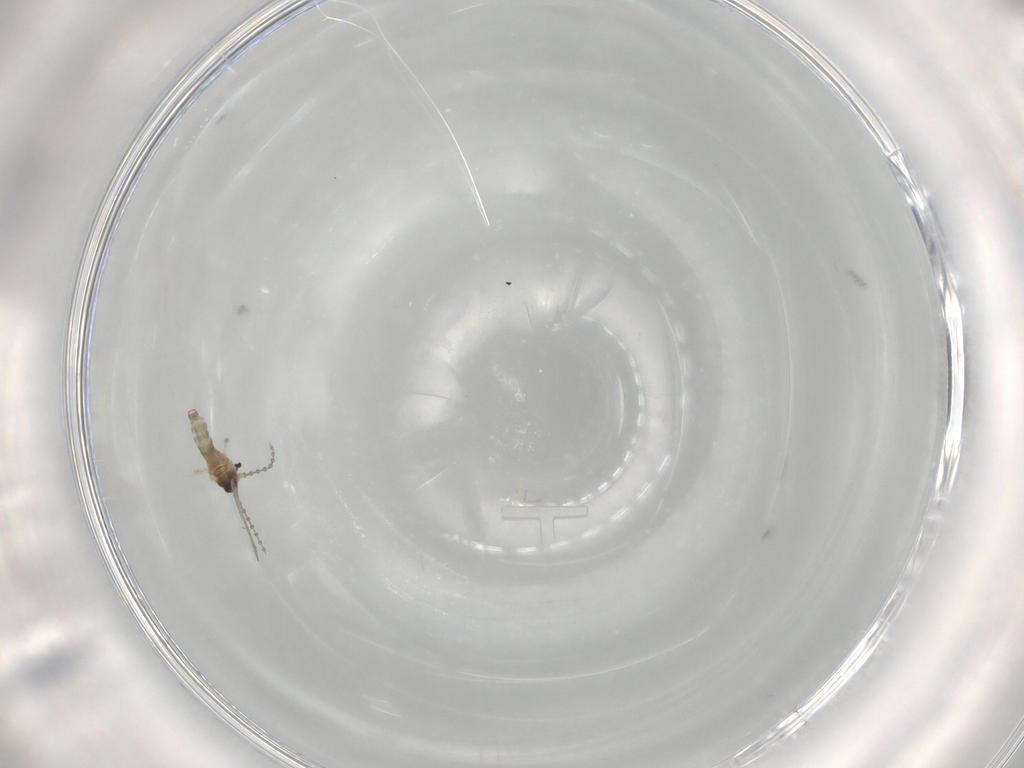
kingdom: Animalia
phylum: Arthropoda
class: Insecta
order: Diptera
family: Cecidomyiidae
